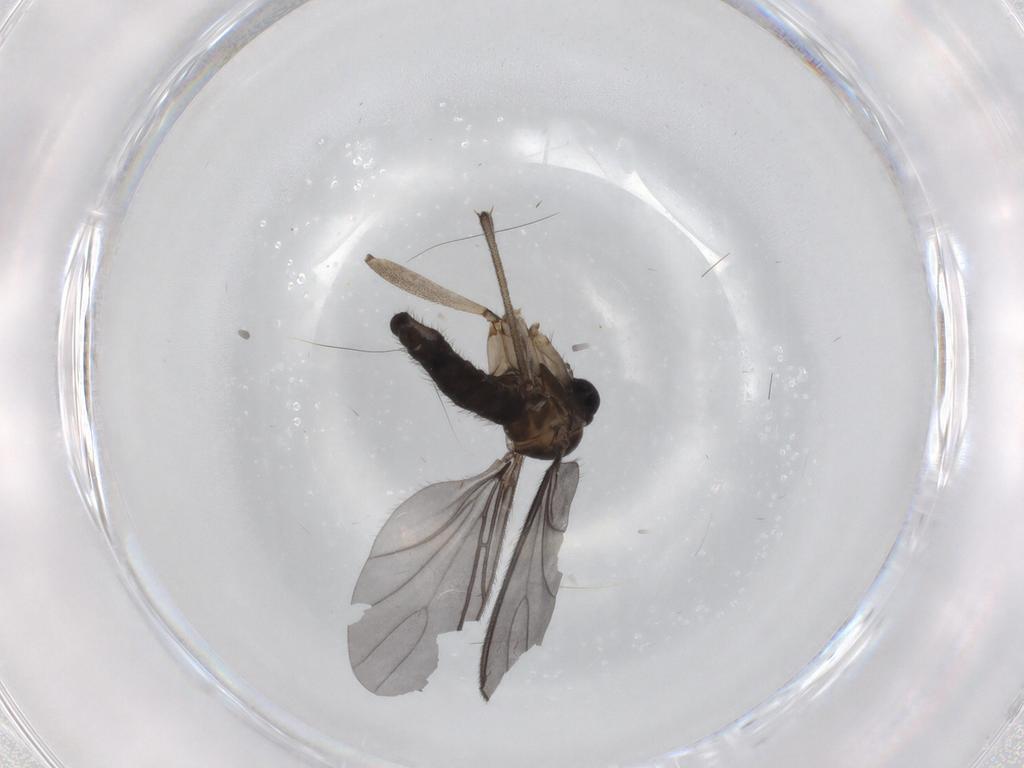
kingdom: Animalia
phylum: Arthropoda
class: Insecta
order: Diptera
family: Sciaridae
